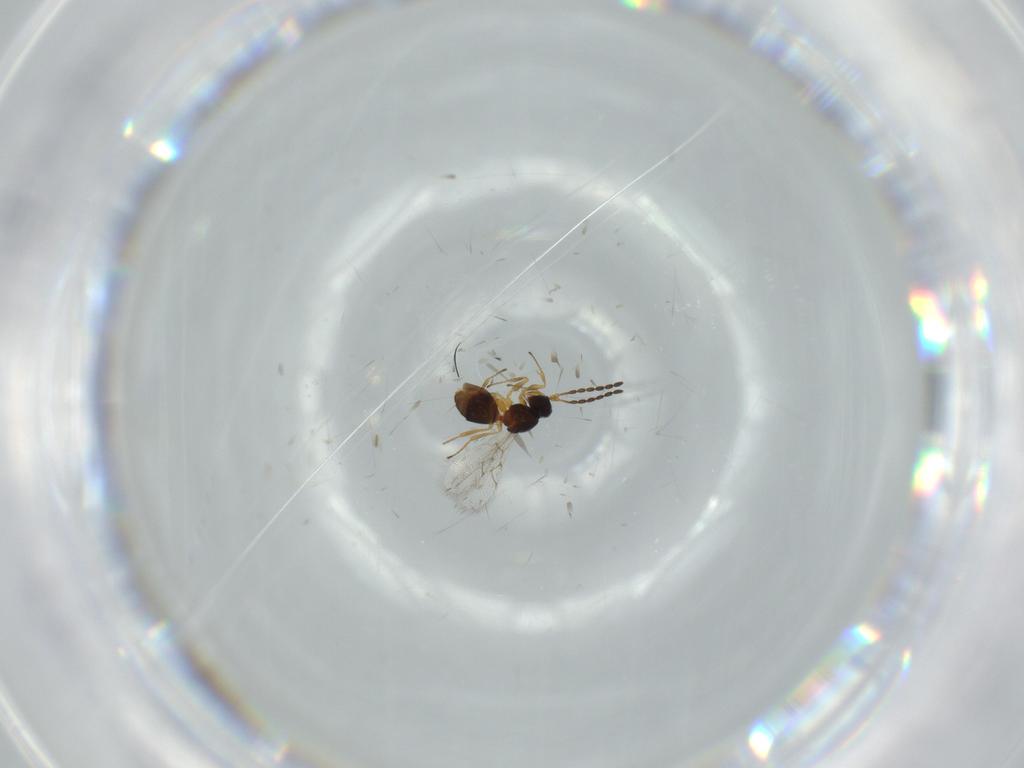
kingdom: Animalia
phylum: Arthropoda
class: Insecta
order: Hymenoptera
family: Figitidae
